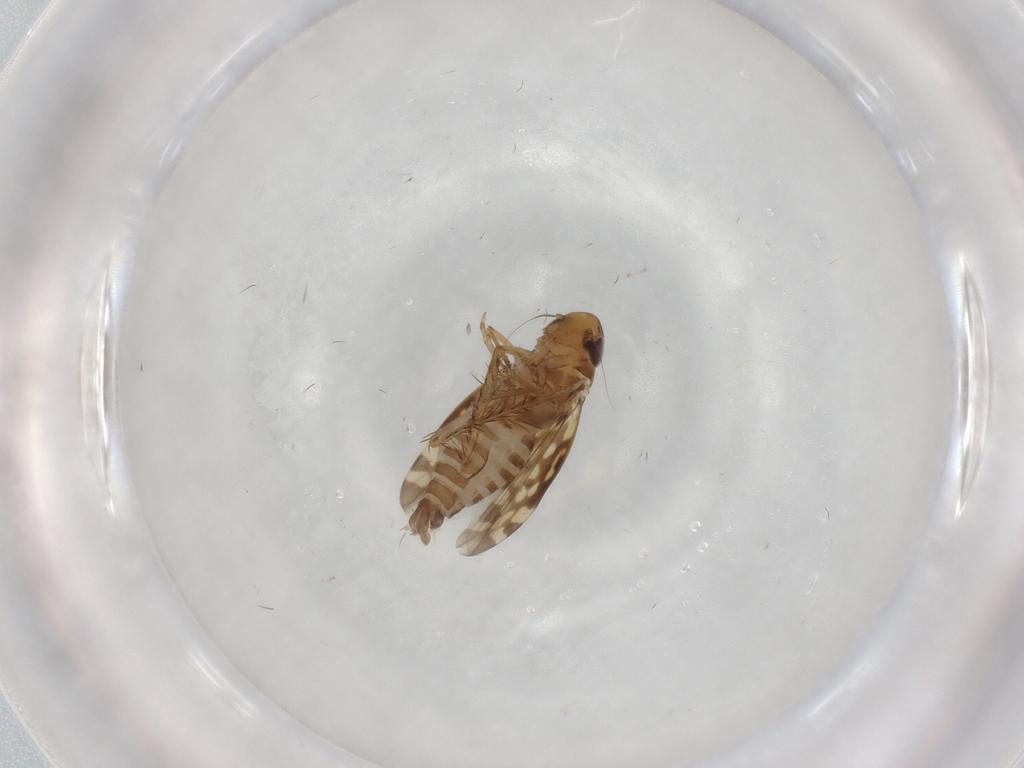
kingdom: Animalia
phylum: Arthropoda
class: Insecta
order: Hemiptera
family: Cicadellidae
